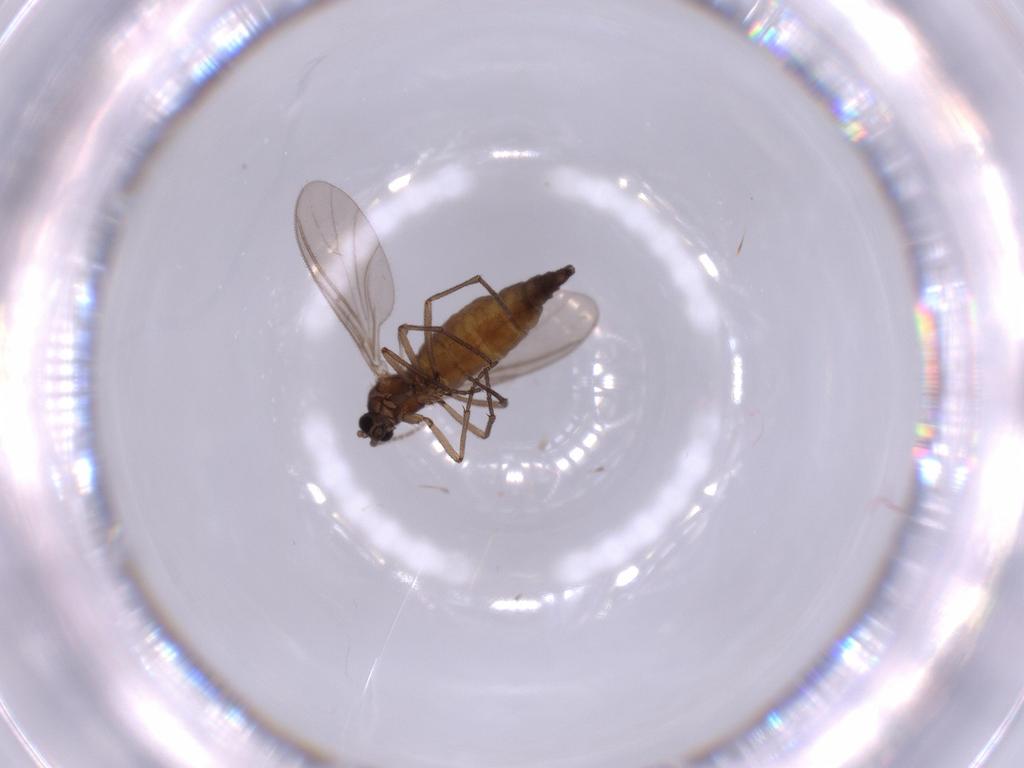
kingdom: Animalia
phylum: Arthropoda
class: Insecta
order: Diptera
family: Sciaridae
